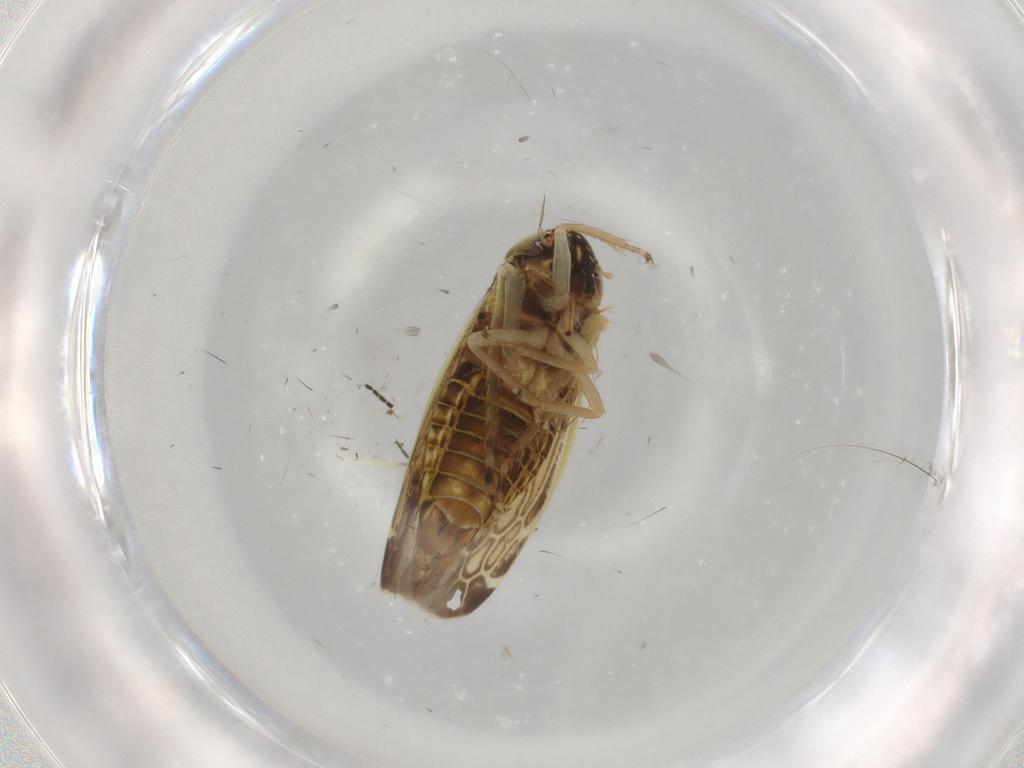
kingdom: Animalia
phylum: Arthropoda
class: Insecta
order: Hemiptera
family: Cicadellidae
